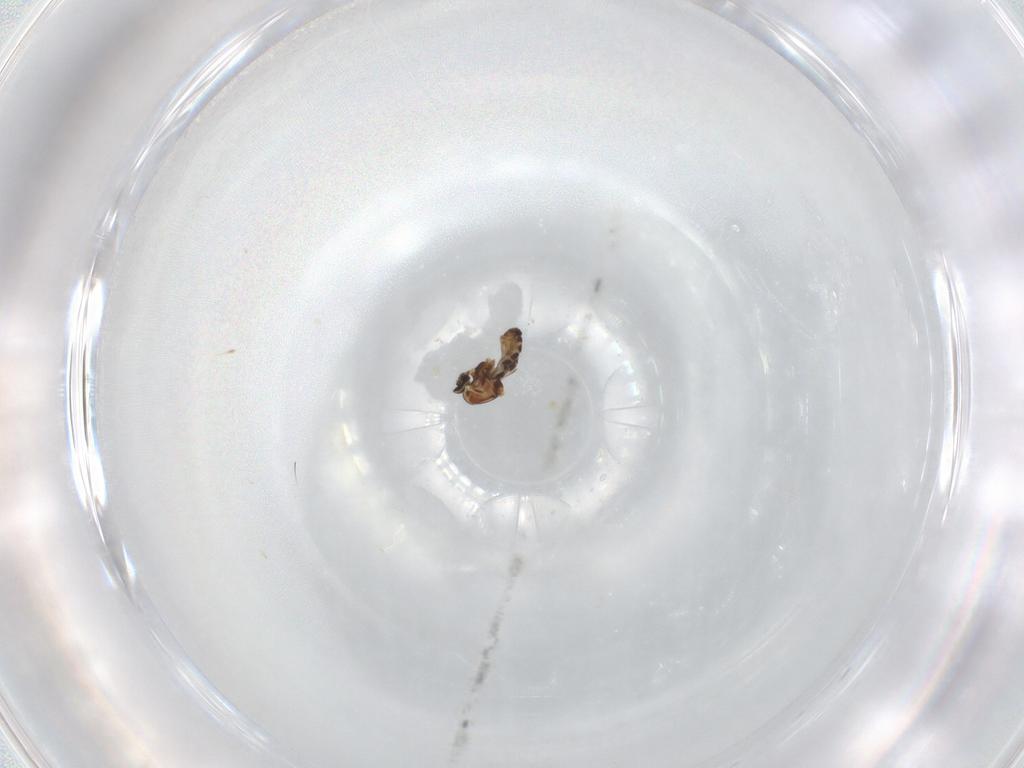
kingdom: Animalia
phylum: Arthropoda
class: Insecta
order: Diptera
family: Ceratopogonidae
